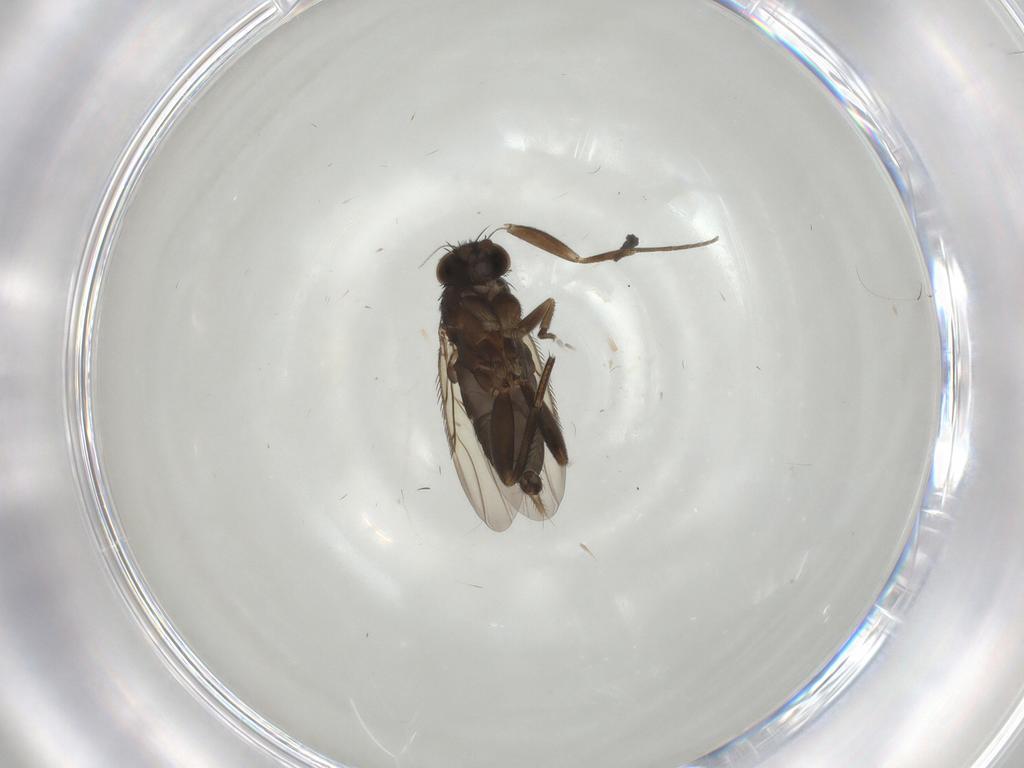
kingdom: Animalia
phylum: Arthropoda
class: Insecta
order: Diptera
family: Phoridae
